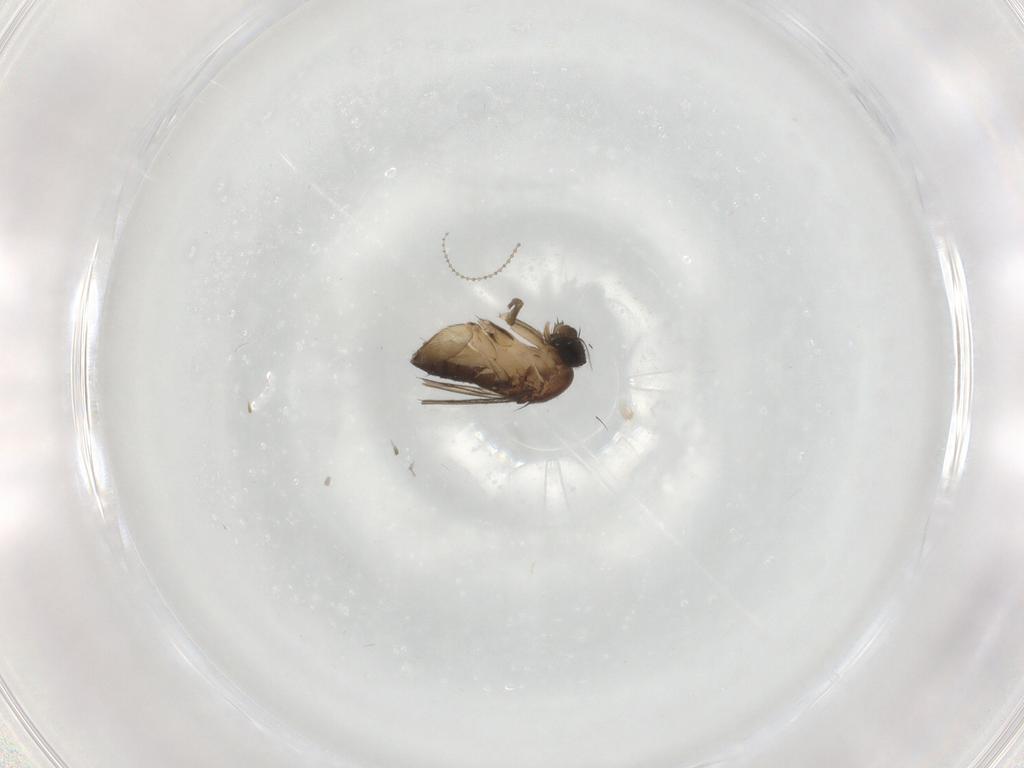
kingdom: Animalia
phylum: Arthropoda
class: Insecta
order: Diptera
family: Phoridae
